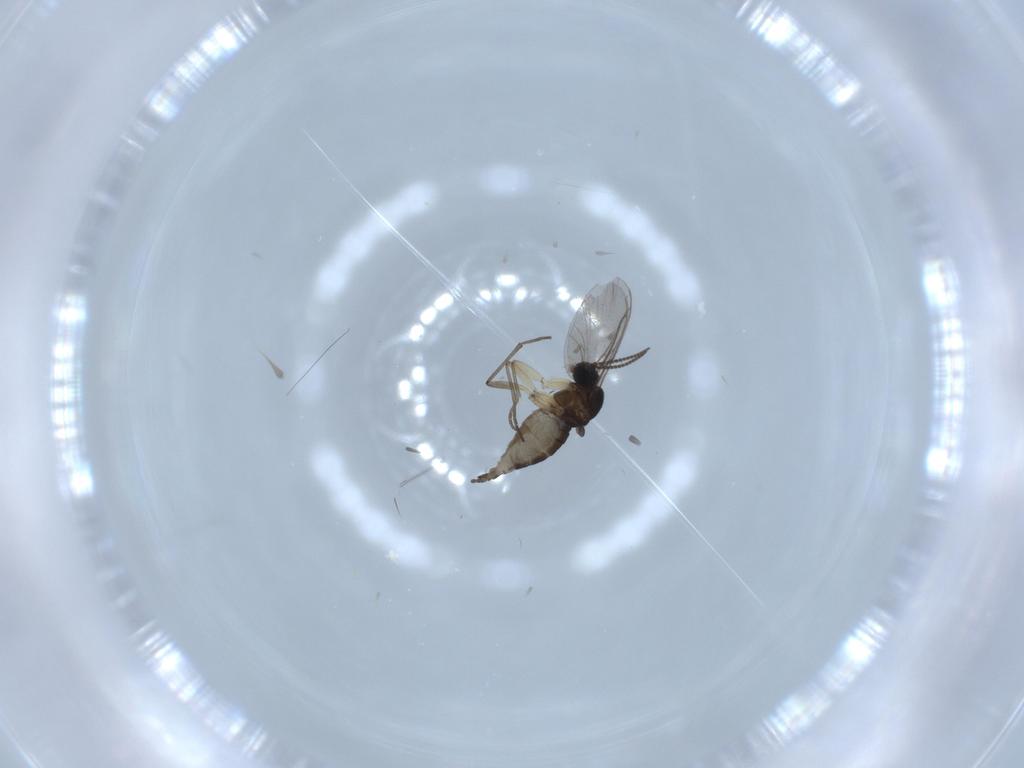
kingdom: Animalia
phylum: Arthropoda
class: Insecta
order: Diptera
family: Sciaridae
